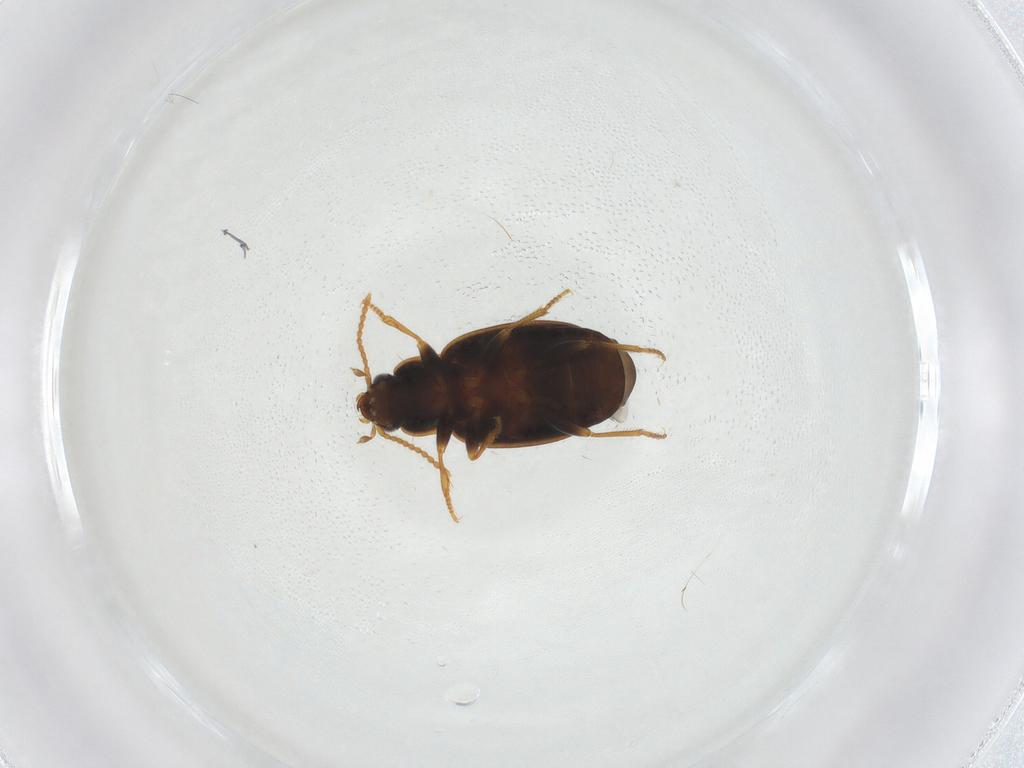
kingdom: Animalia
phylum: Arthropoda
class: Insecta
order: Coleoptera
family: Carabidae
